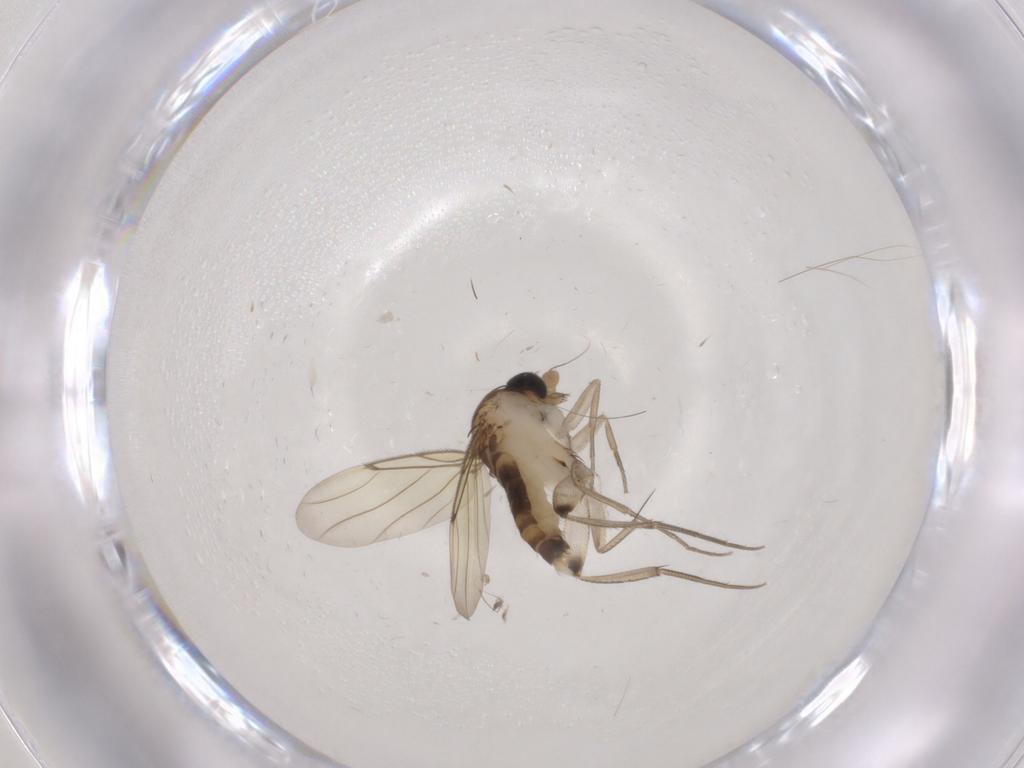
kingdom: Animalia
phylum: Arthropoda
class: Insecta
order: Diptera
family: Phoridae
